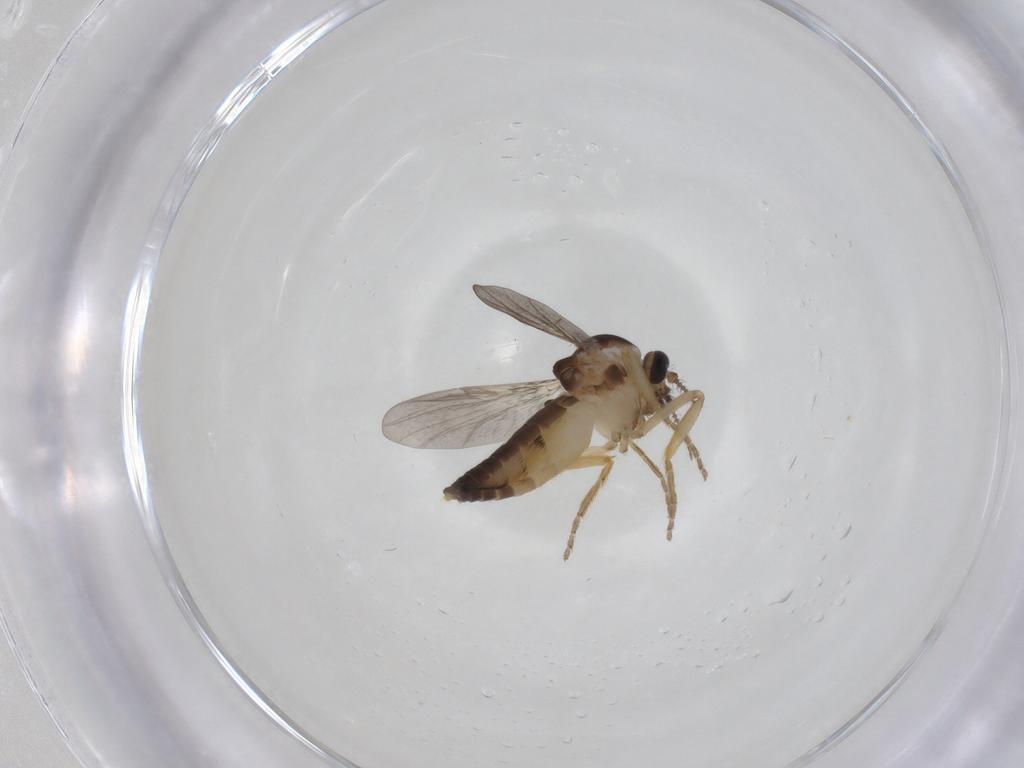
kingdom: Animalia
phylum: Arthropoda
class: Insecta
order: Diptera
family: Ceratopogonidae
